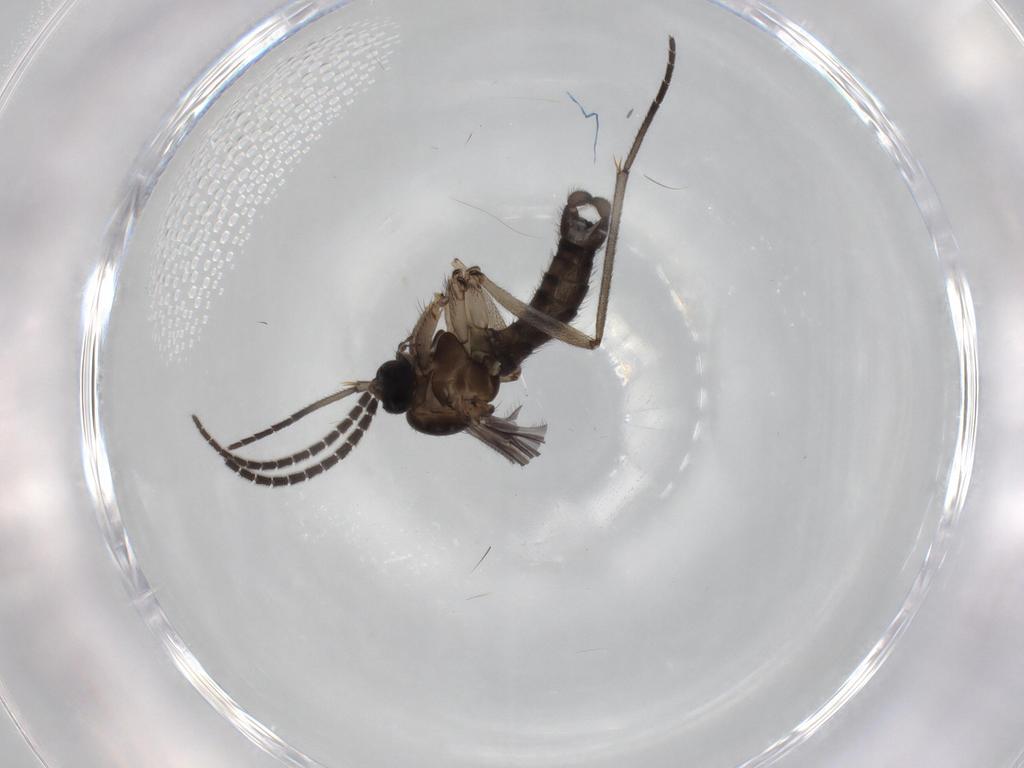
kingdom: Animalia
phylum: Arthropoda
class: Insecta
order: Diptera
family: Sciaridae
